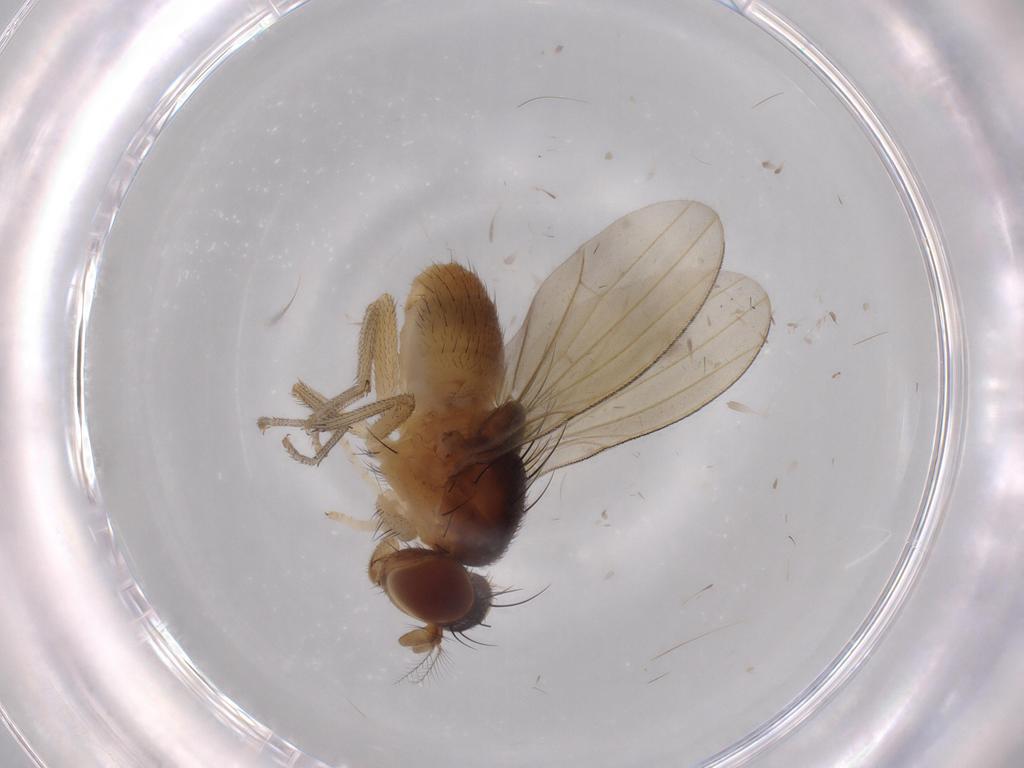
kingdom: Animalia
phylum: Arthropoda
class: Insecta
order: Diptera
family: Lauxaniidae
